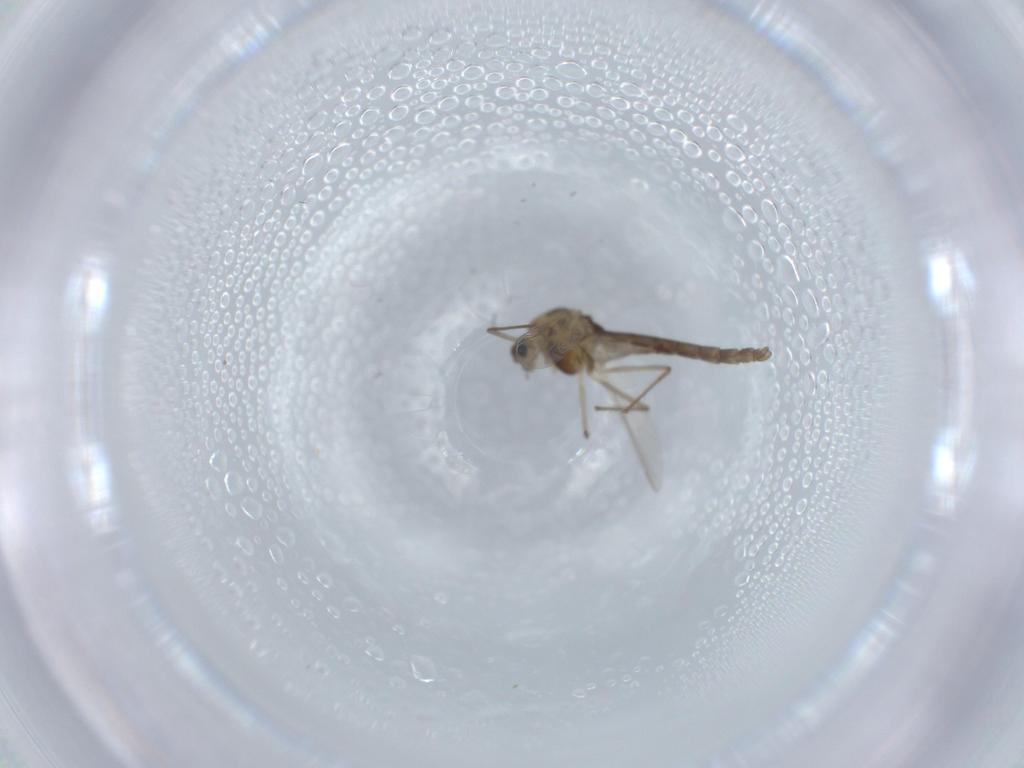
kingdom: Animalia
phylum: Arthropoda
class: Insecta
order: Diptera
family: Chironomidae
